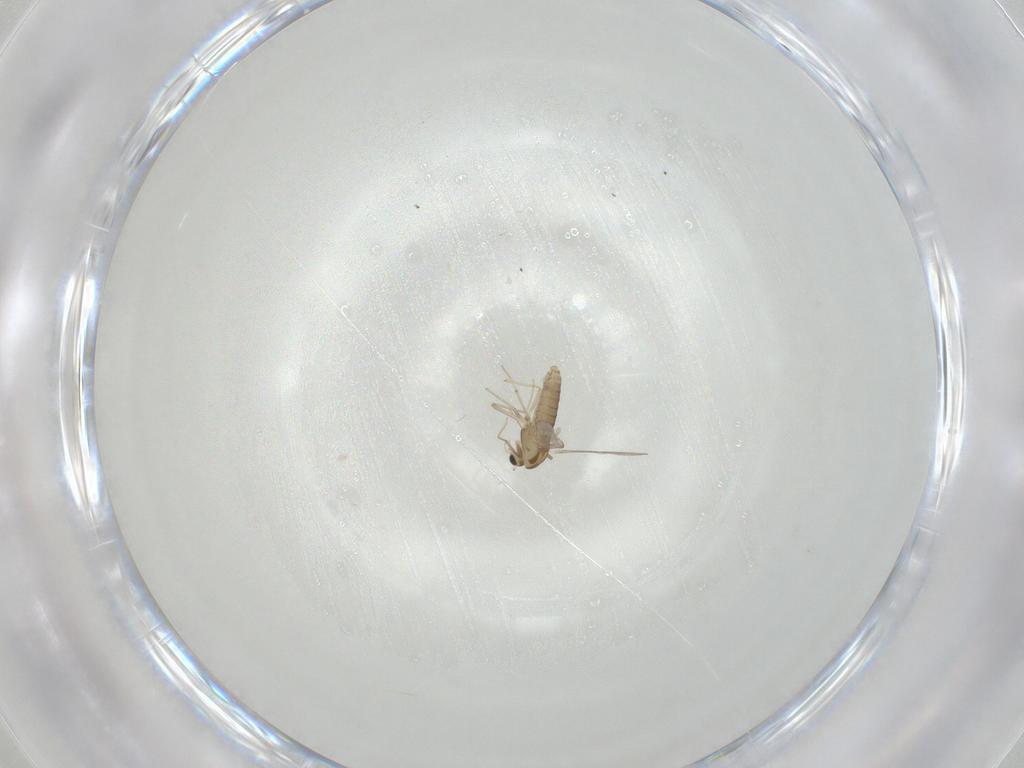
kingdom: Animalia
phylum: Arthropoda
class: Insecta
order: Diptera
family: Chironomidae
